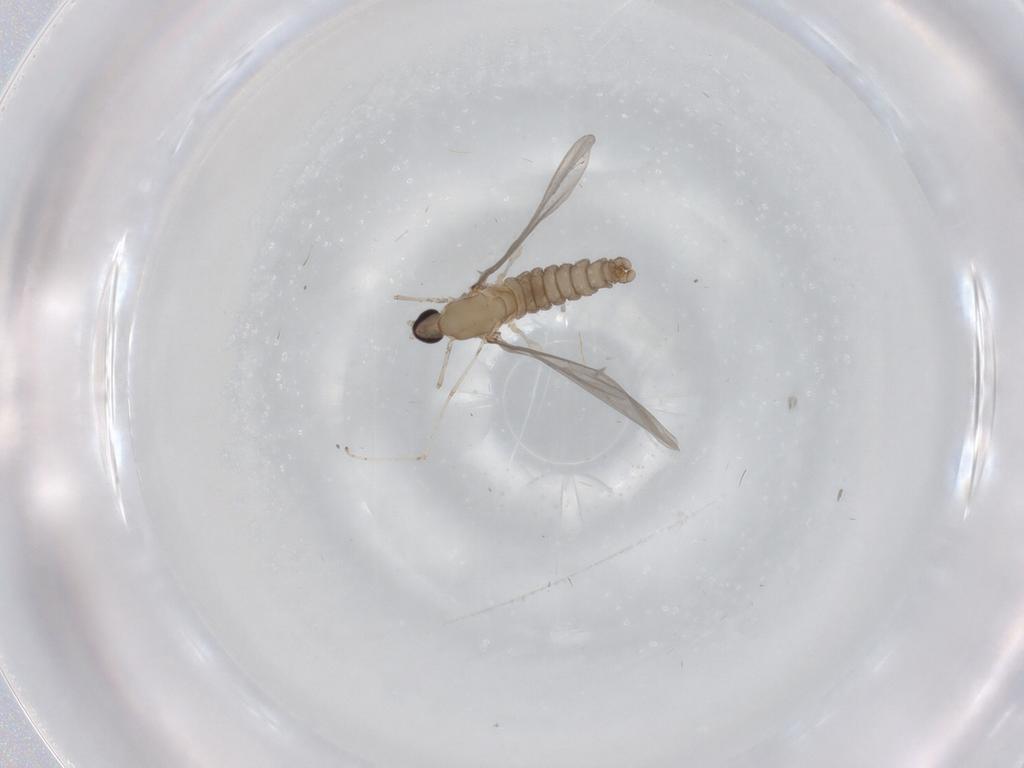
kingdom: Animalia
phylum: Arthropoda
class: Insecta
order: Diptera
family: Cecidomyiidae
